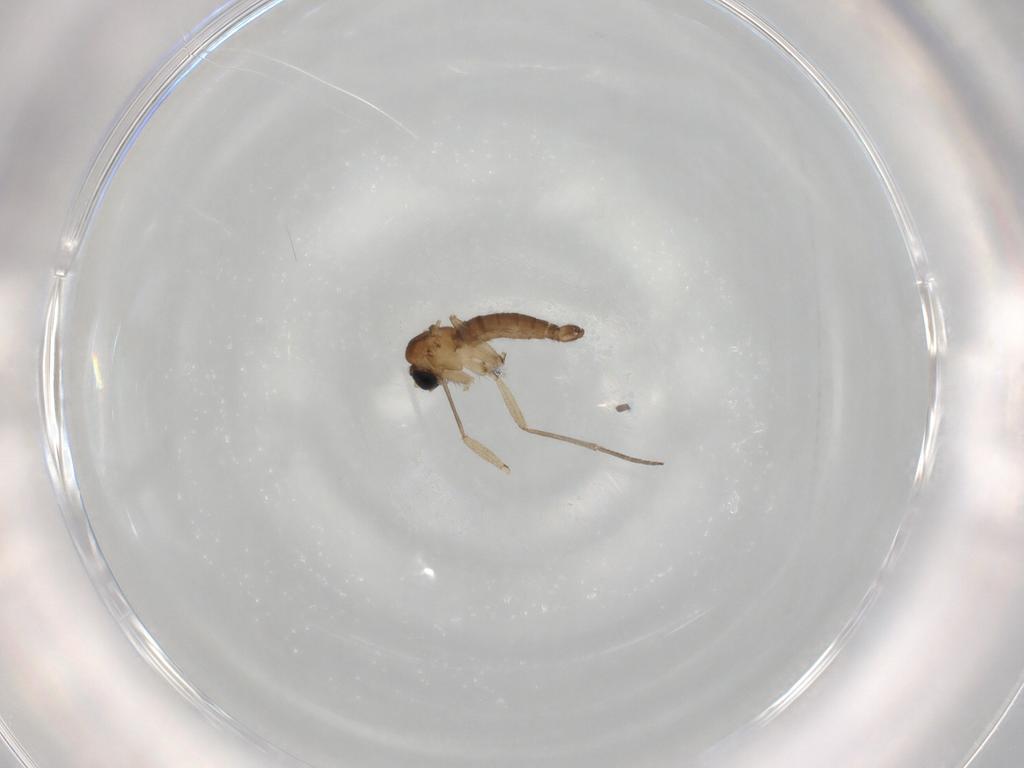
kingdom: Animalia
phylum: Arthropoda
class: Insecta
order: Diptera
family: Sciaridae
